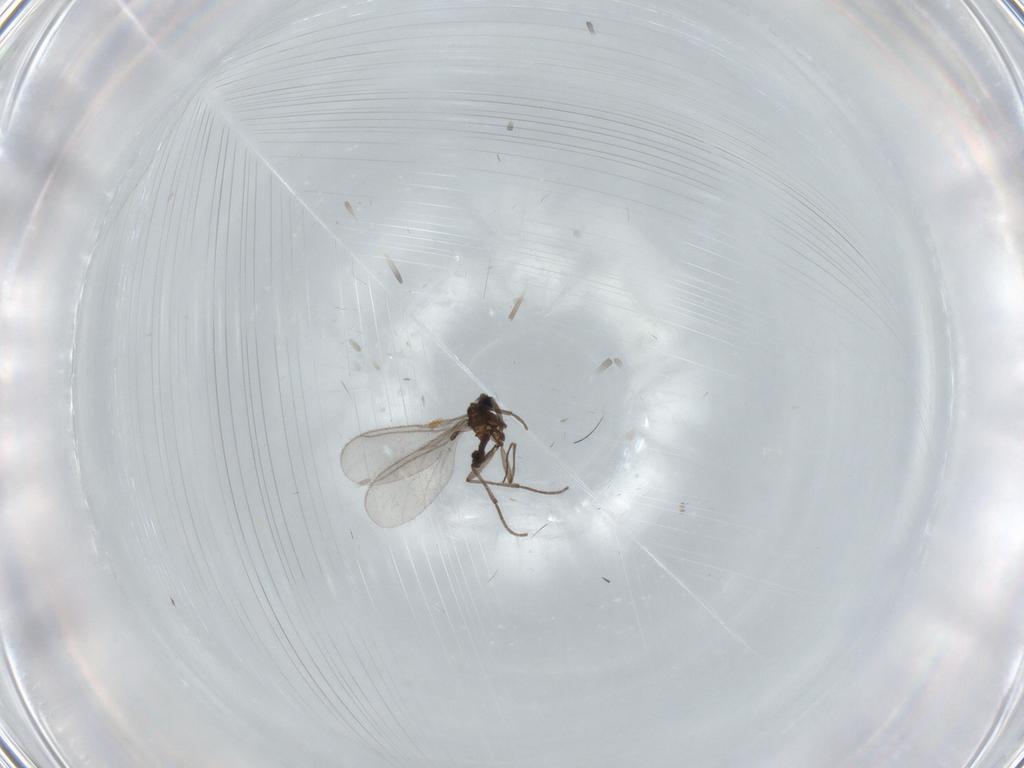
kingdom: Animalia
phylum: Arthropoda
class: Insecta
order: Diptera
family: Sciaridae
